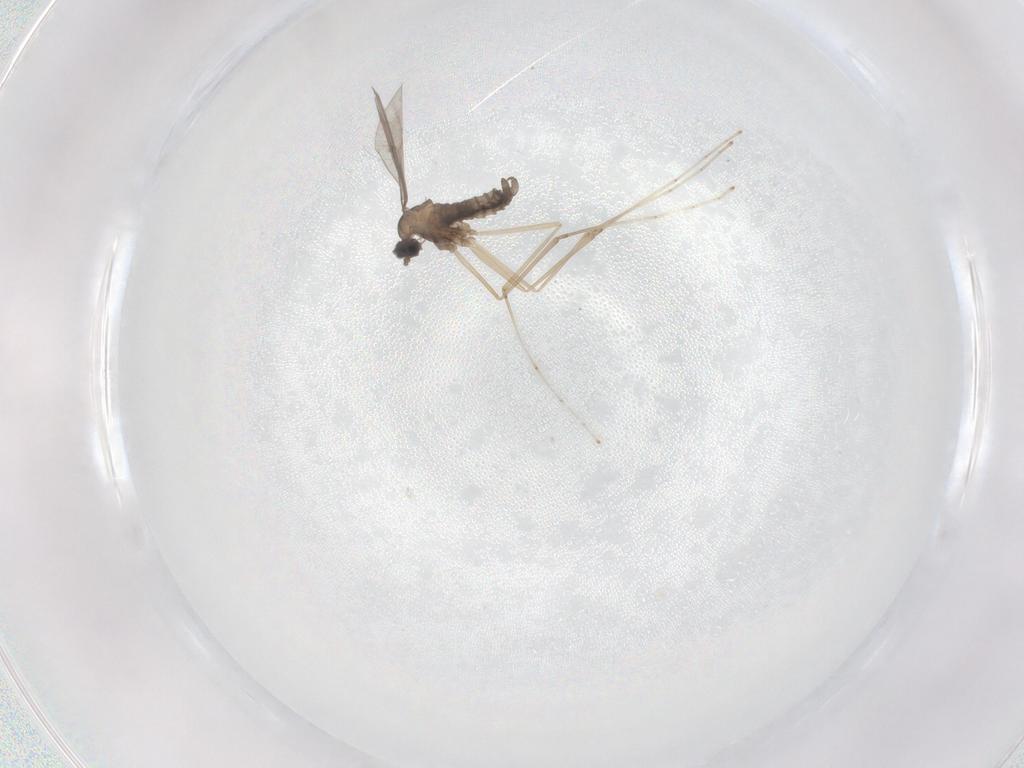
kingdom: Animalia
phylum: Arthropoda
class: Insecta
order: Diptera
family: Cecidomyiidae
